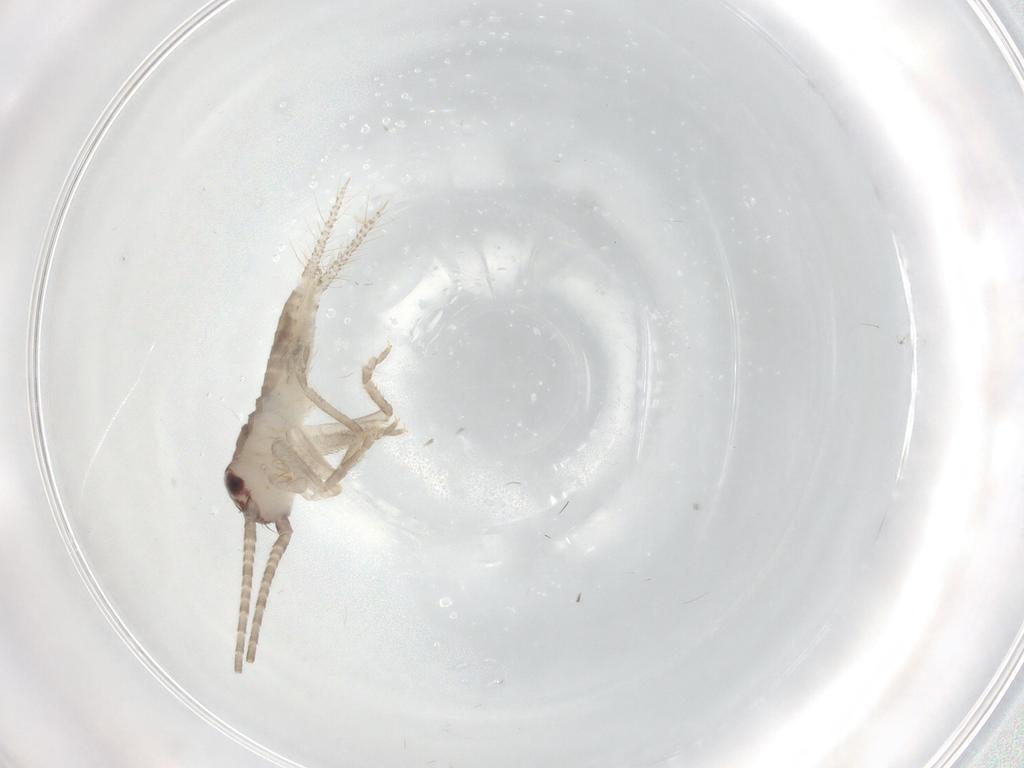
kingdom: Animalia
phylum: Arthropoda
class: Insecta
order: Orthoptera
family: Gryllidae
